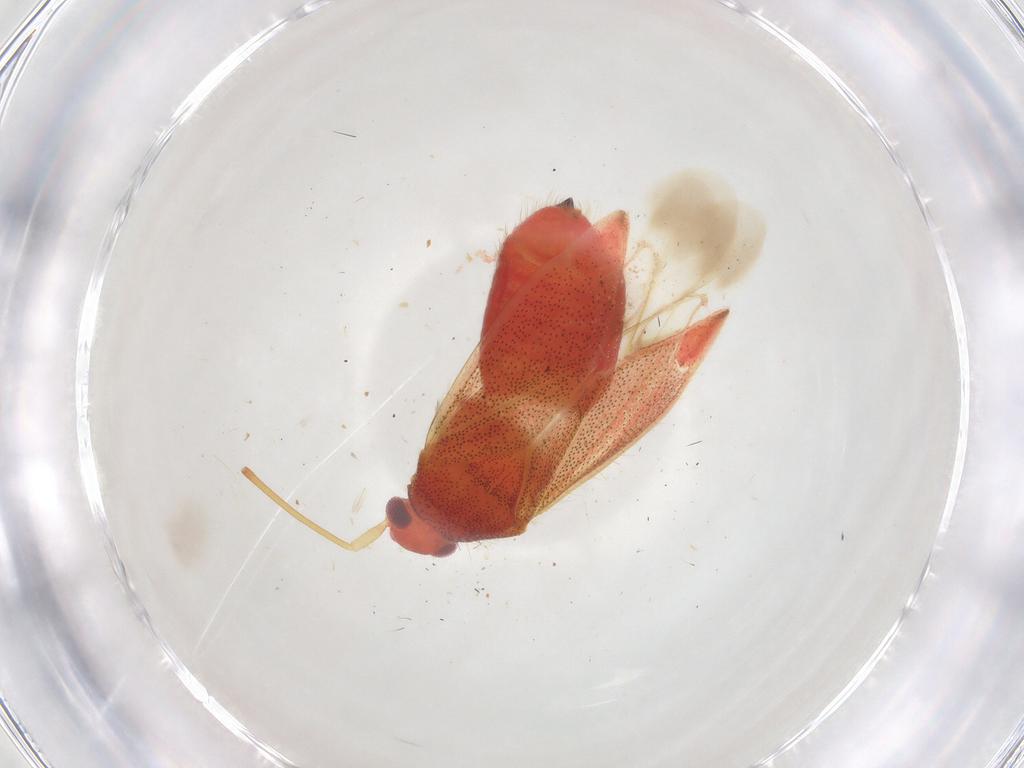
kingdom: Animalia
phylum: Arthropoda
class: Insecta
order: Hemiptera
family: Miridae
